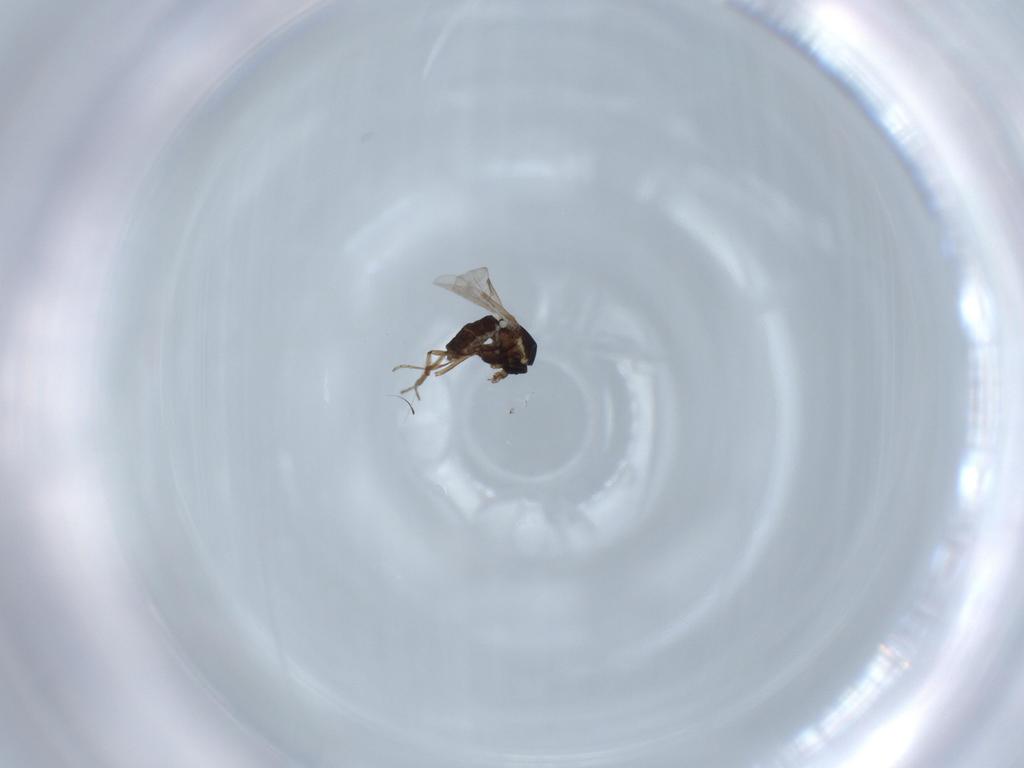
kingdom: Animalia
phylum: Arthropoda
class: Insecta
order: Diptera
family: Ceratopogonidae
